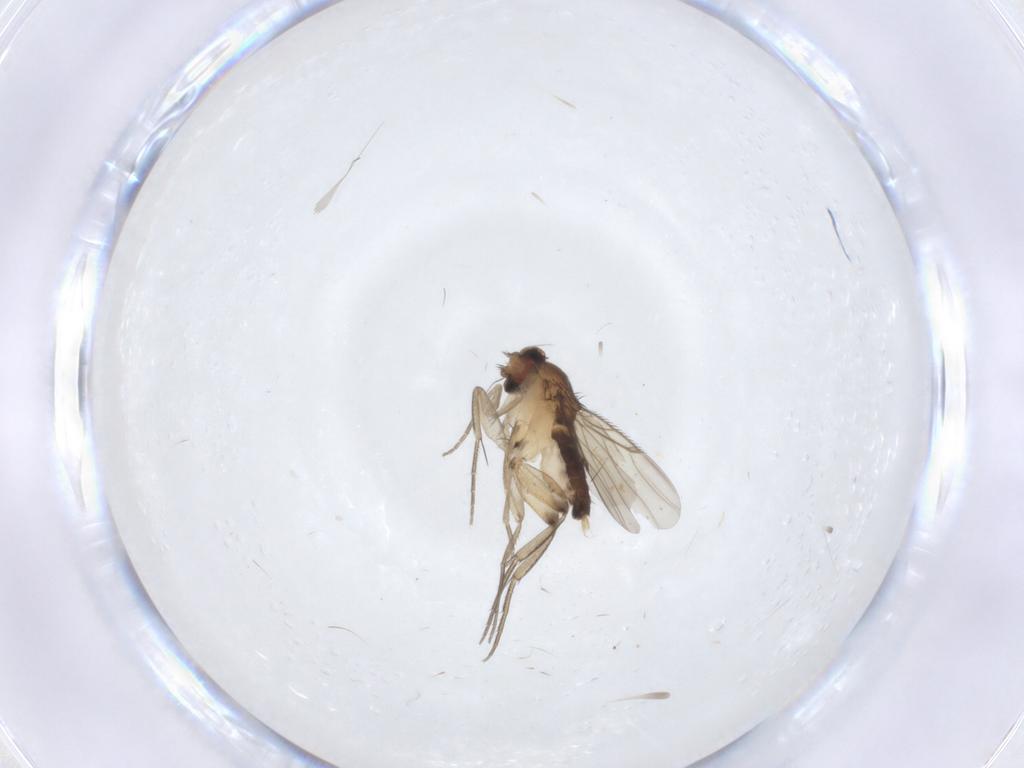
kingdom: Animalia
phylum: Arthropoda
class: Insecta
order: Diptera
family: Phoridae
